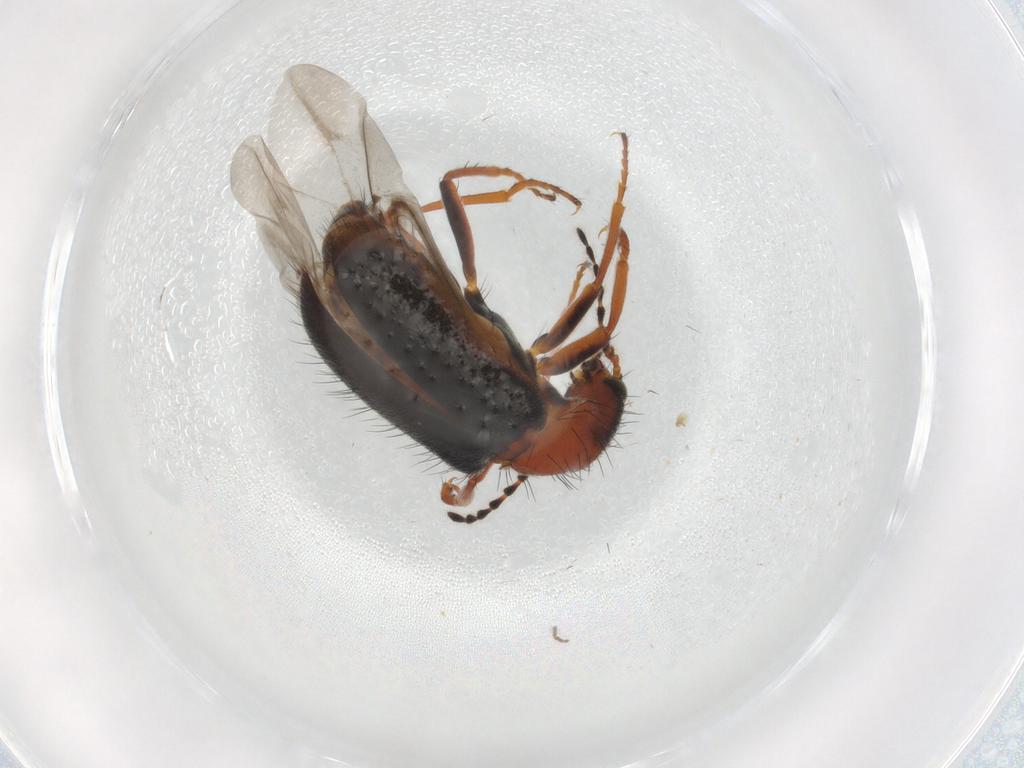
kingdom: Animalia
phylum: Arthropoda
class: Insecta
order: Coleoptera
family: Melyridae
